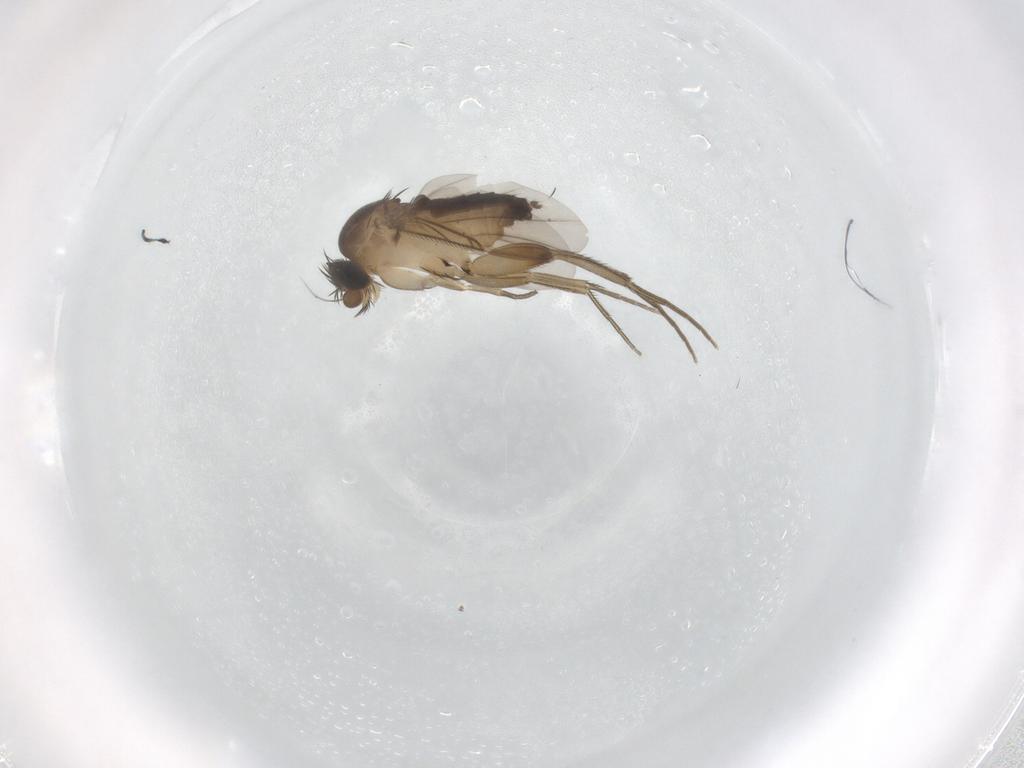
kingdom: Animalia
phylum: Arthropoda
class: Insecta
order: Diptera
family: Phoridae
